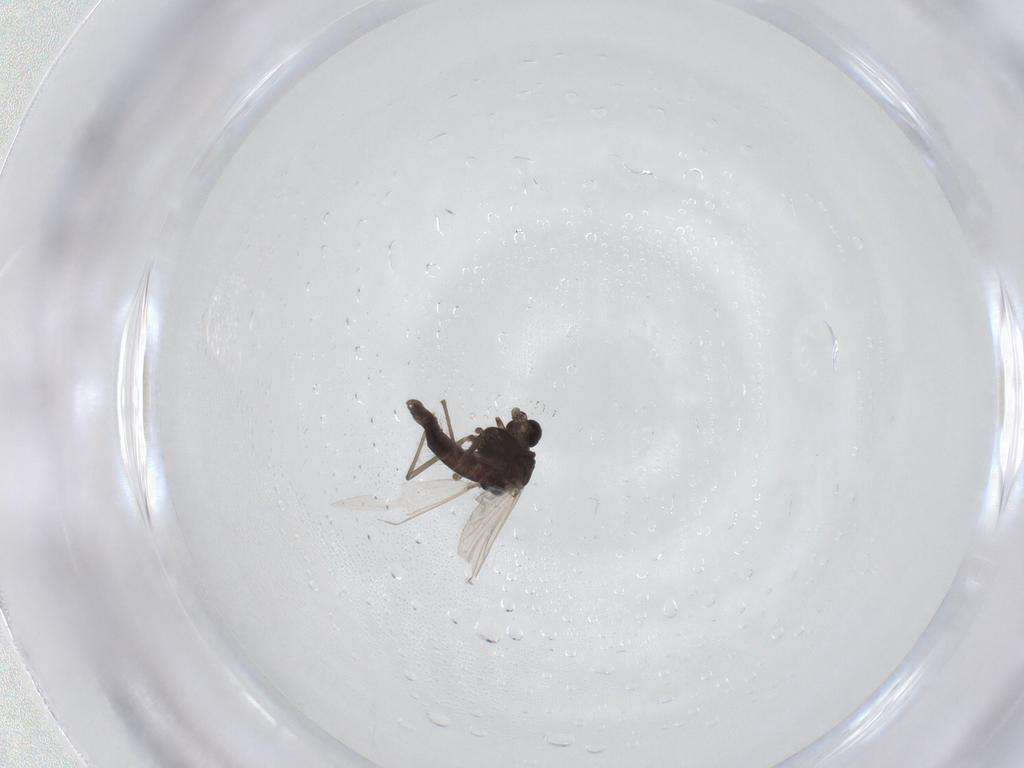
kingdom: Animalia
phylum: Arthropoda
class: Insecta
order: Diptera
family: Chironomidae
